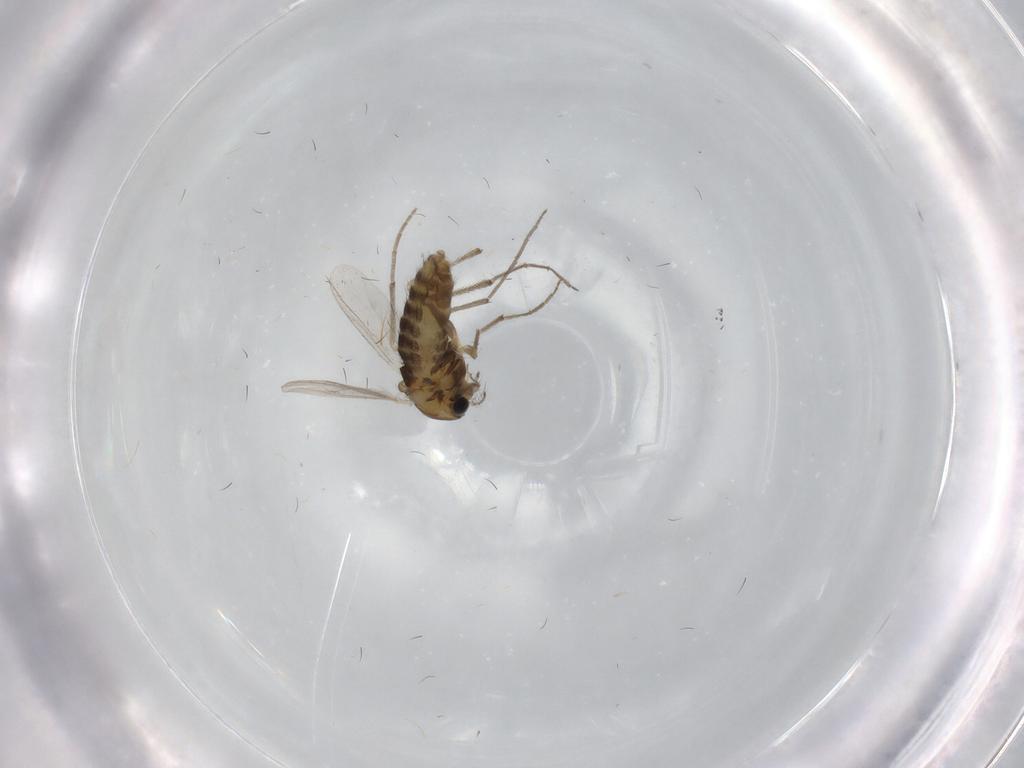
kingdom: Animalia
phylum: Arthropoda
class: Insecta
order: Diptera
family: Chironomidae
